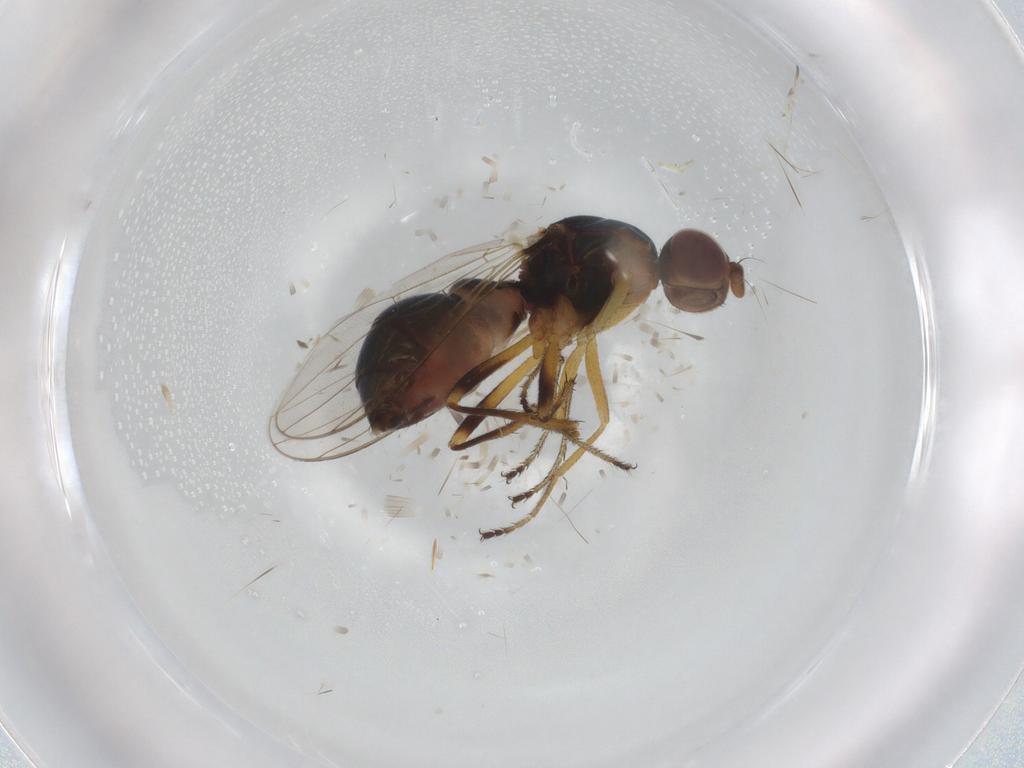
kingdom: Animalia
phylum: Arthropoda
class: Insecta
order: Diptera
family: Sepsidae
